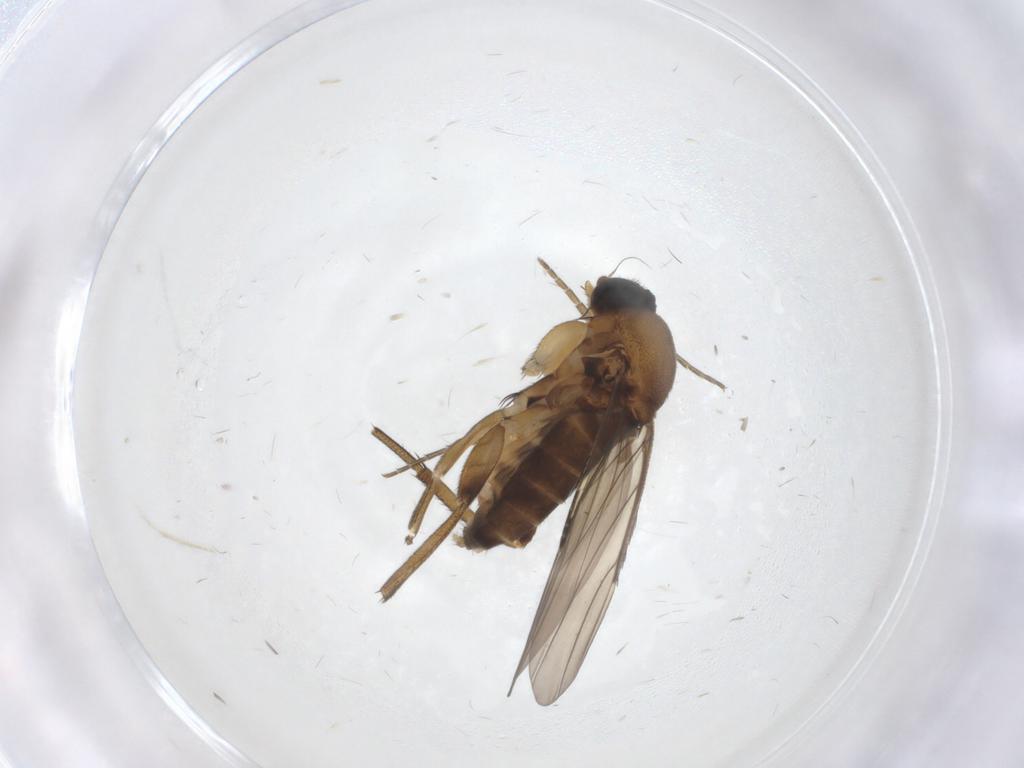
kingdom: Animalia
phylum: Arthropoda
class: Insecta
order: Diptera
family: Phoridae
